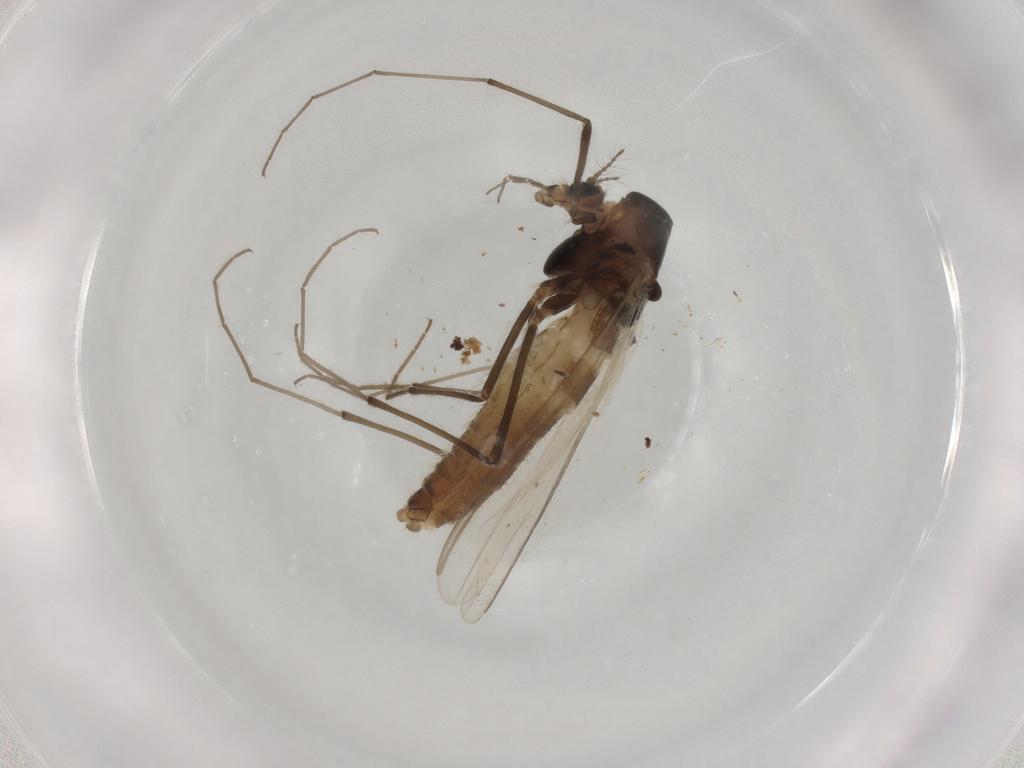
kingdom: Animalia
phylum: Arthropoda
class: Insecta
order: Diptera
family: Chironomidae
